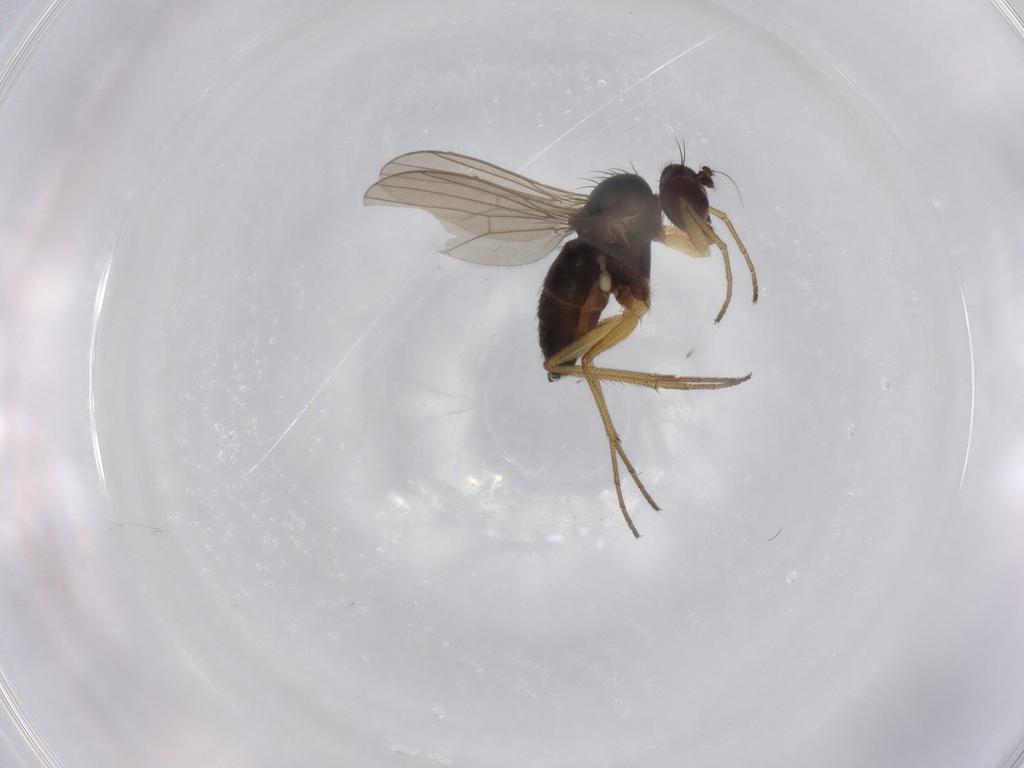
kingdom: Animalia
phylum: Arthropoda
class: Insecta
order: Diptera
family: Dolichopodidae
